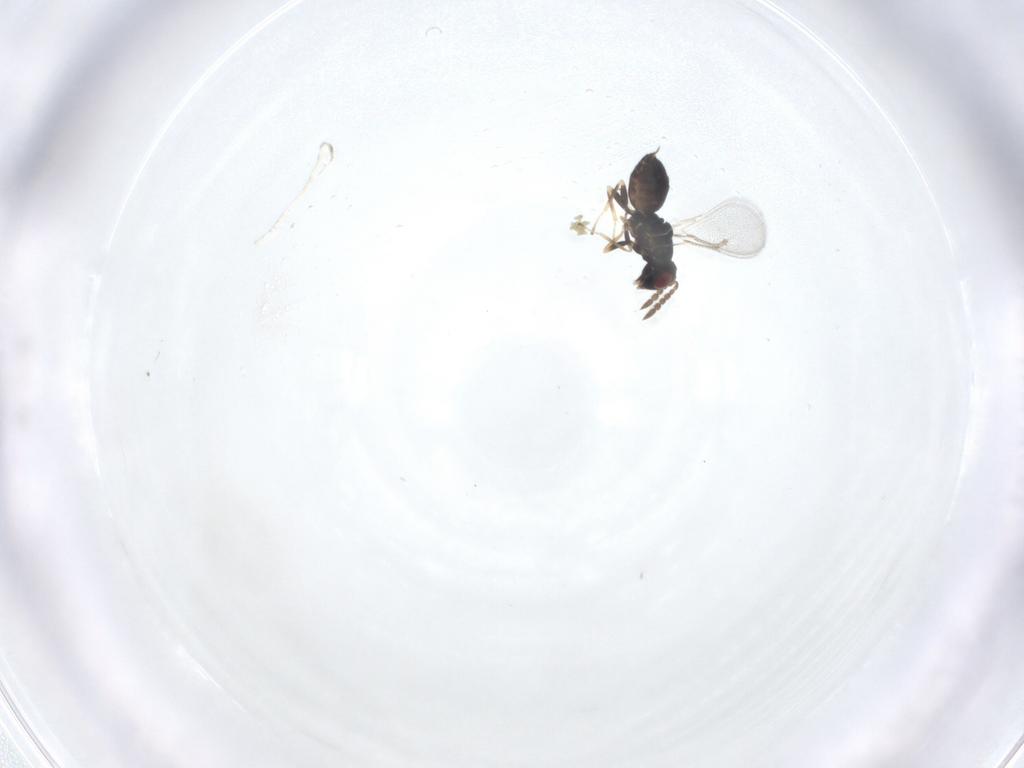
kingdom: Animalia
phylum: Arthropoda
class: Insecta
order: Hymenoptera
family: Eulophidae
